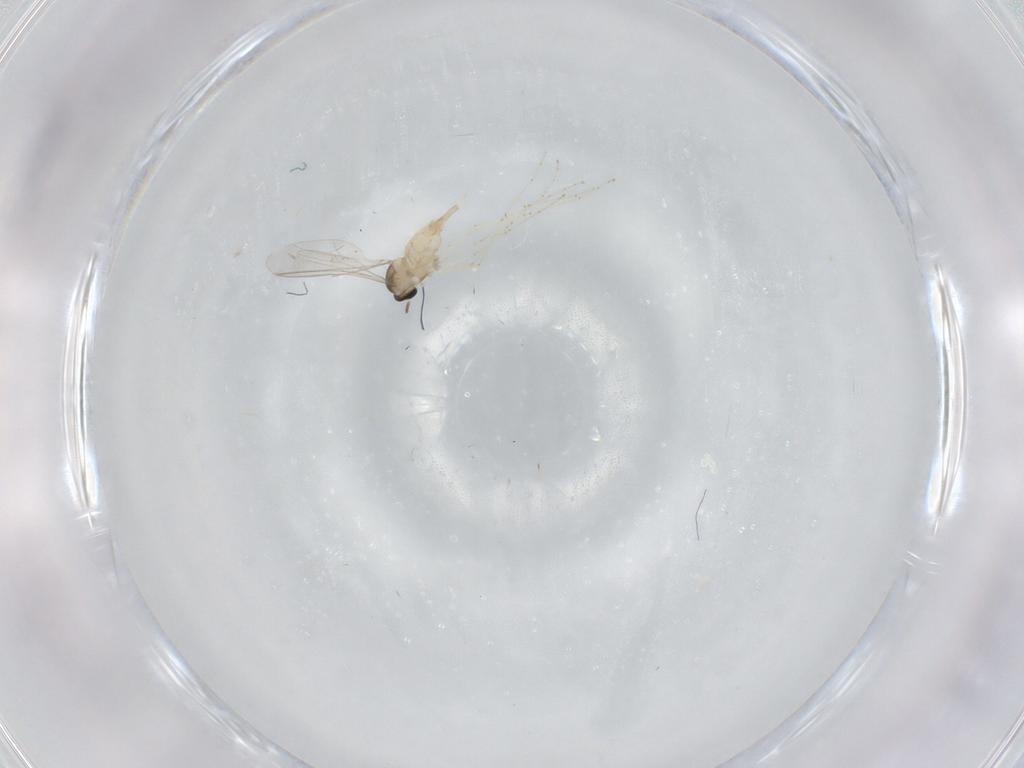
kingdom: Animalia
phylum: Arthropoda
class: Insecta
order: Diptera
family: Cecidomyiidae
